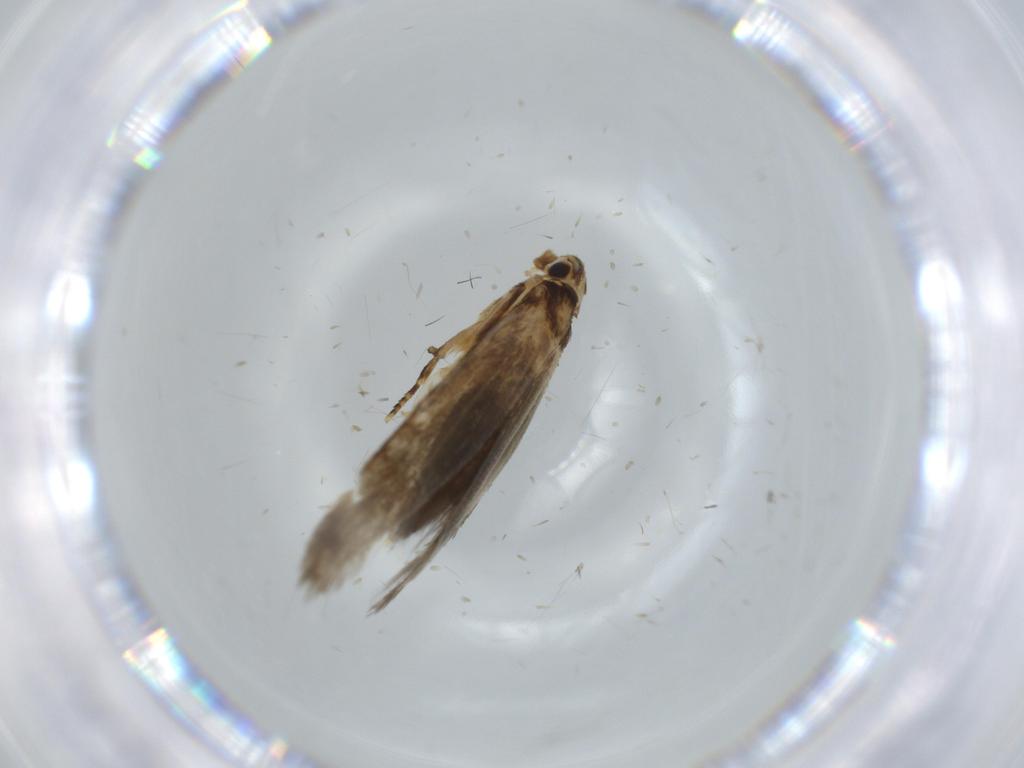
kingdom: Animalia
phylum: Arthropoda
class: Insecta
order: Lepidoptera
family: Tineidae
